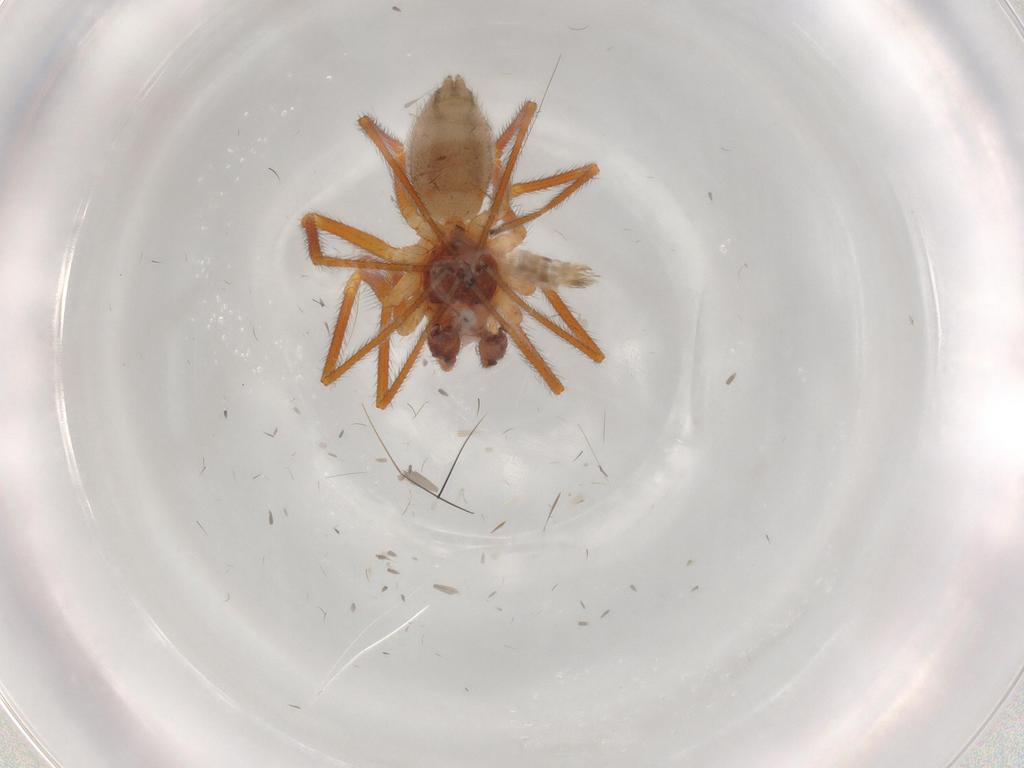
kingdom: Animalia
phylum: Arthropoda
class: Arachnida
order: Araneae
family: Linyphiidae
